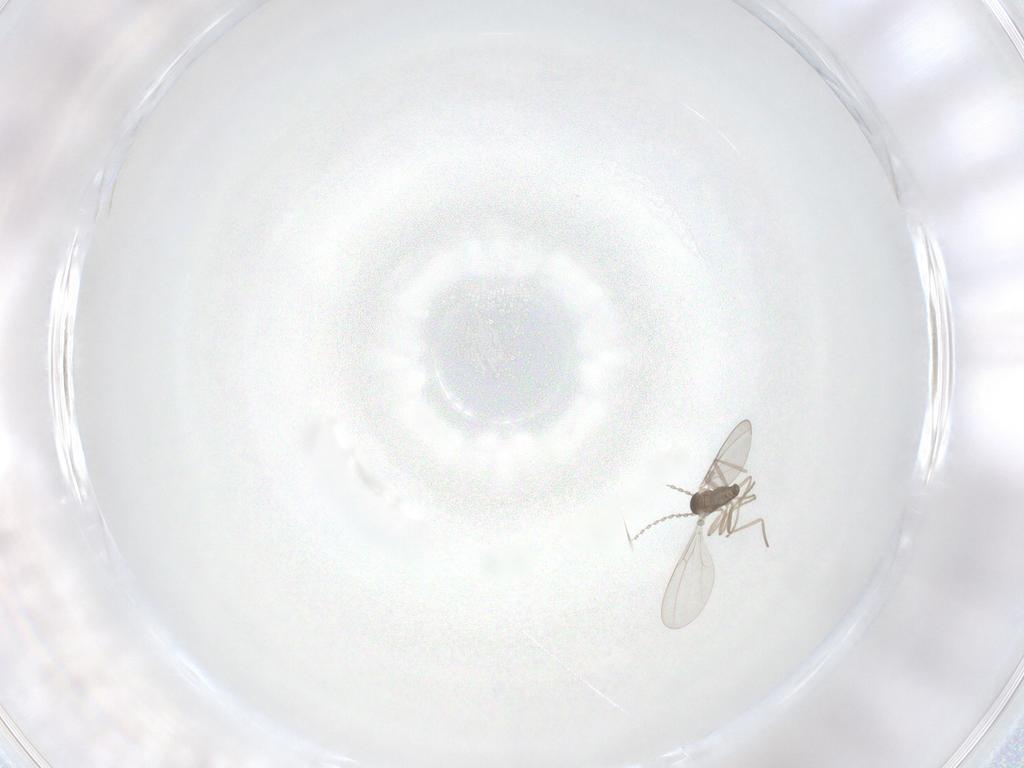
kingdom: Animalia
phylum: Arthropoda
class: Insecta
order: Diptera
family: Cecidomyiidae
